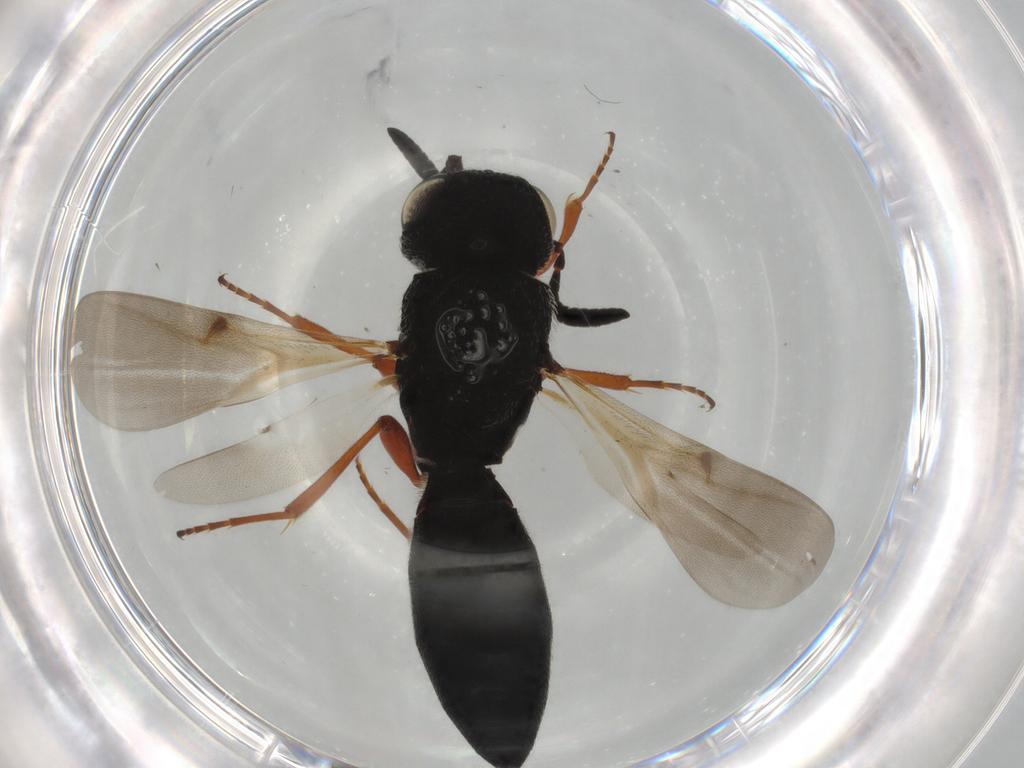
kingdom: Animalia
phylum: Arthropoda
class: Insecta
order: Hymenoptera
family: Scelionidae
